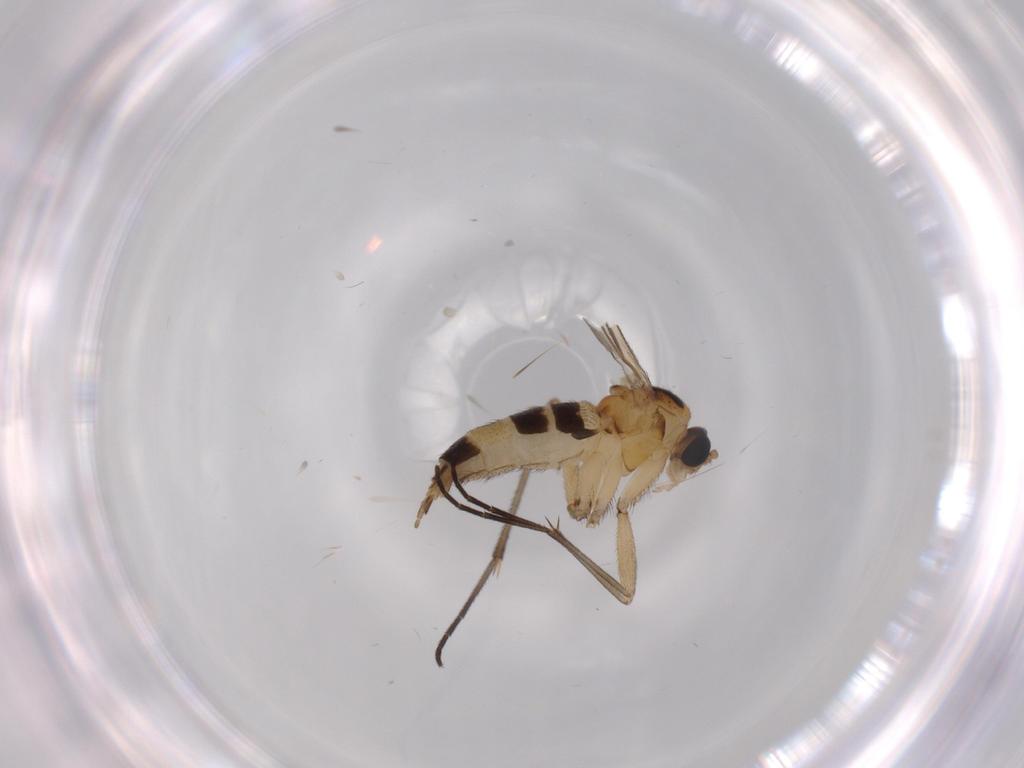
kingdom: Animalia
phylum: Arthropoda
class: Insecta
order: Diptera
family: Sciaridae
